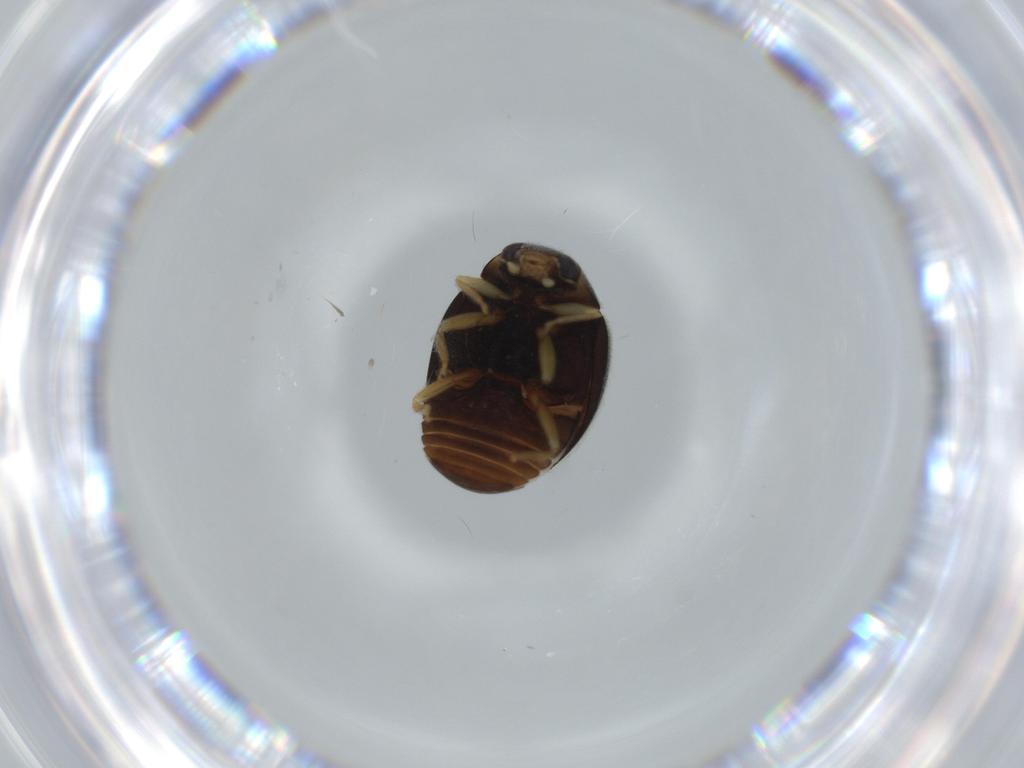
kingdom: Animalia
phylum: Arthropoda
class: Insecta
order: Coleoptera
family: Coccinellidae
